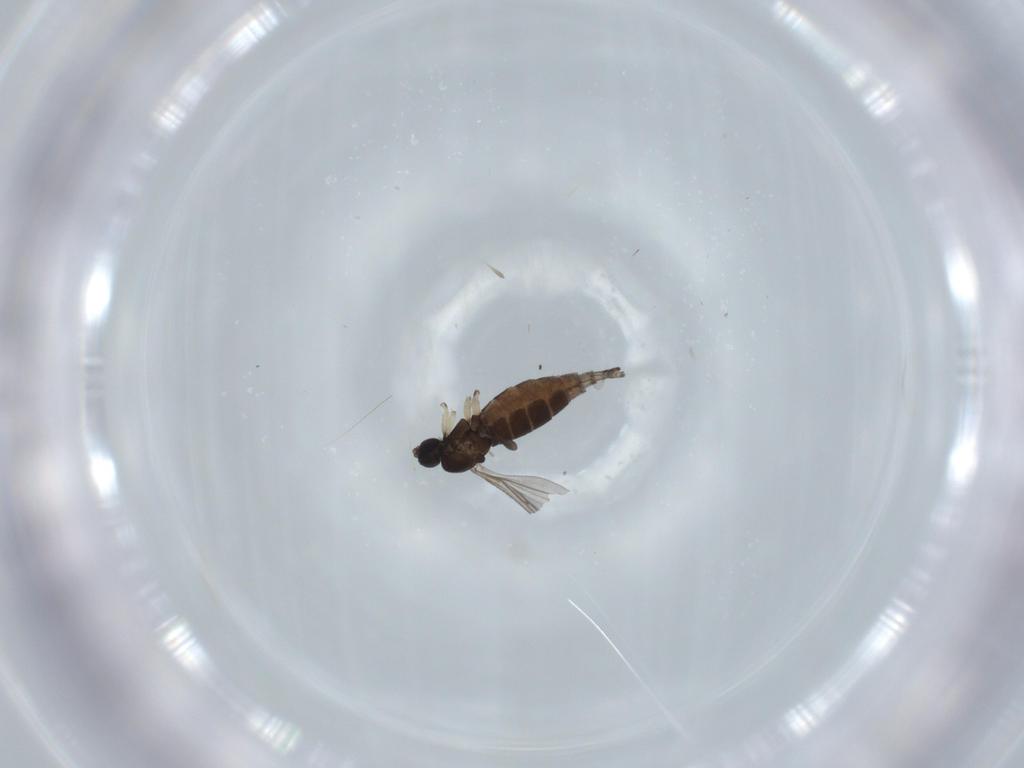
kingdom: Animalia
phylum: Arthropoda
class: Insecta
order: Diptera
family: Sciaridae
